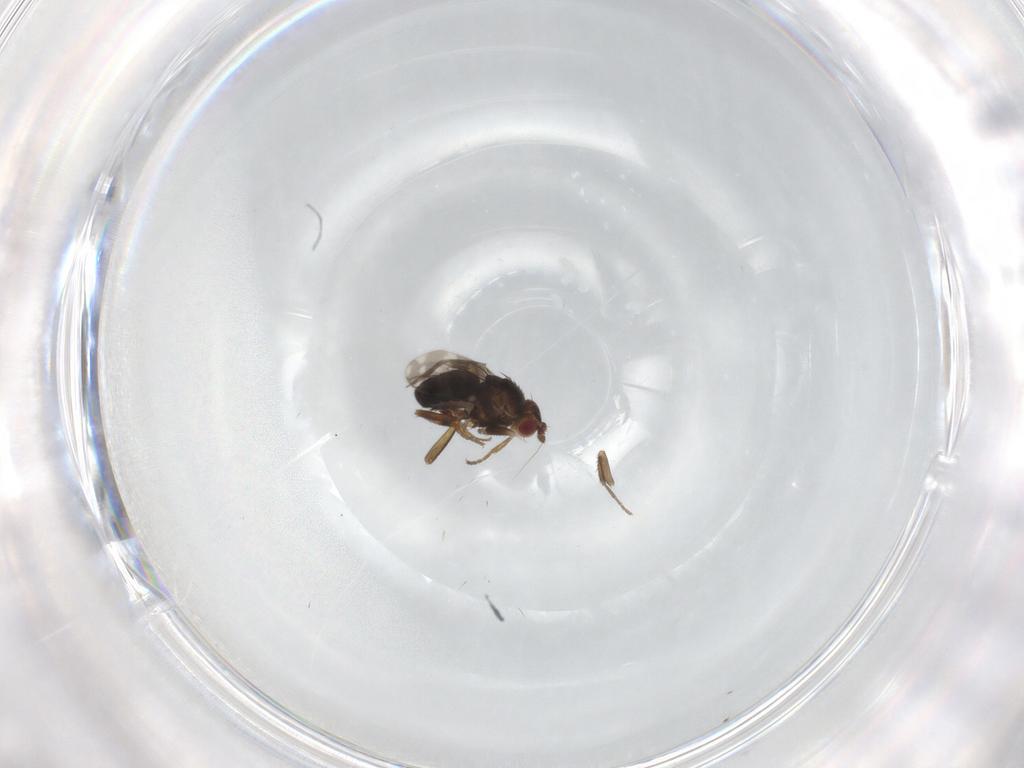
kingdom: Animalia
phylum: Arthropoda
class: Insecta
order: Diptera
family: Sphaeroceridae
